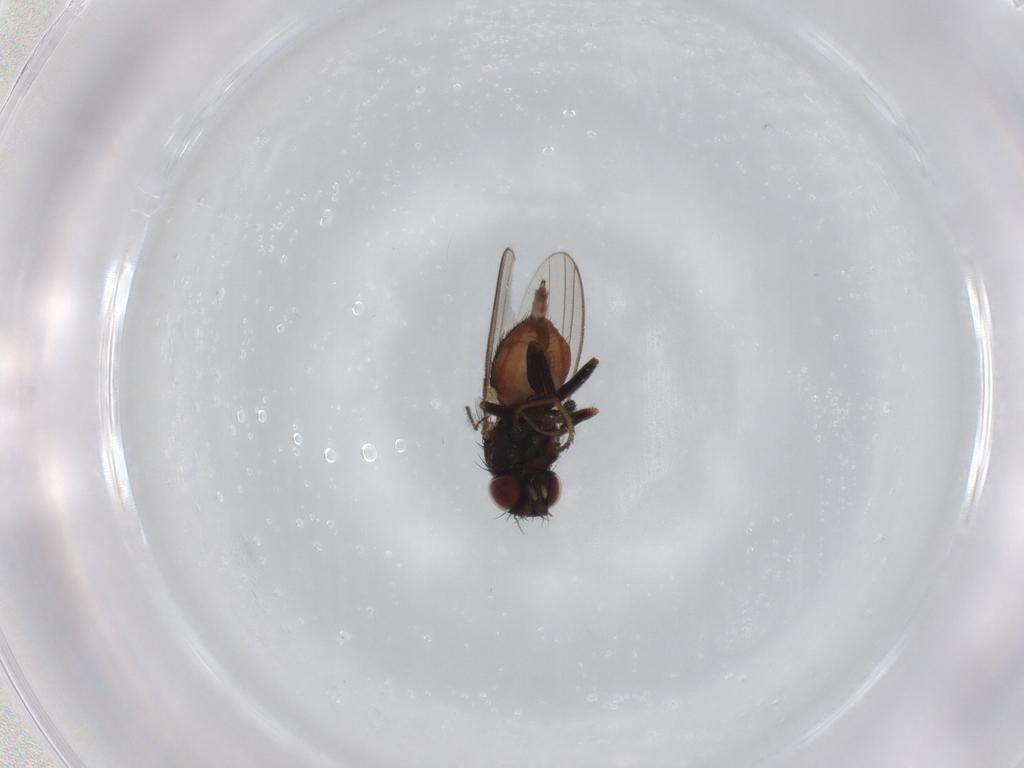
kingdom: Animalia
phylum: Arthropoda
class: Insecta
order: Diptera
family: Milichiidae
